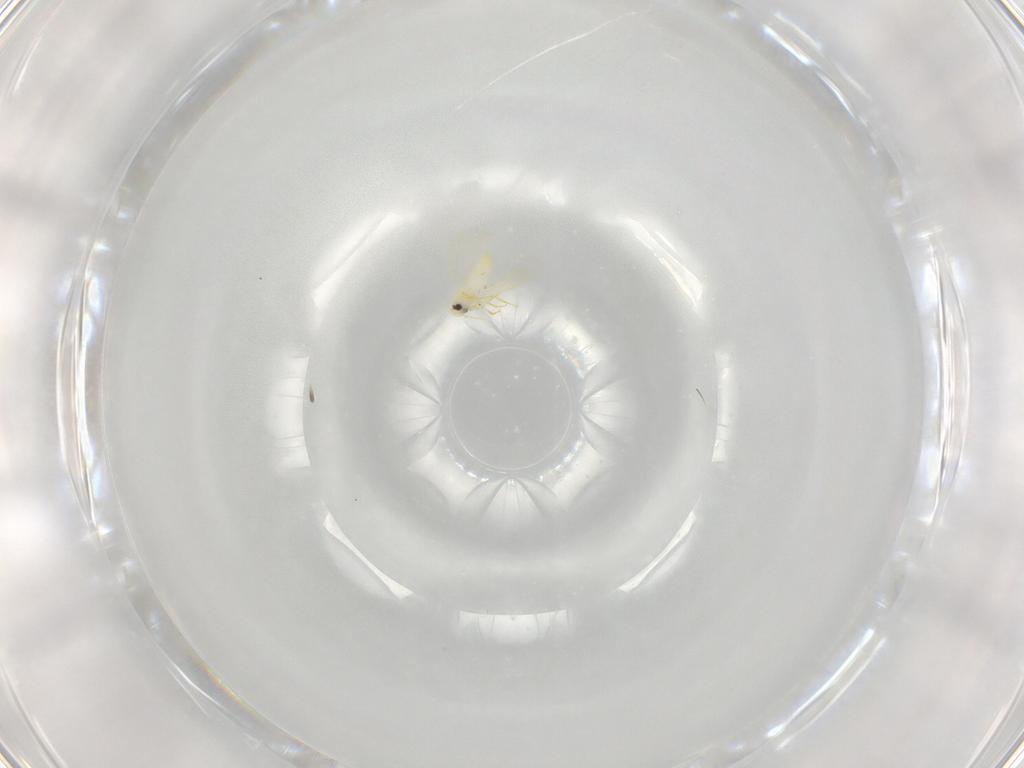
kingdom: Animalia
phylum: Arthropoda
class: Insecta
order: Hemiptera
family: Aleyrodidae
